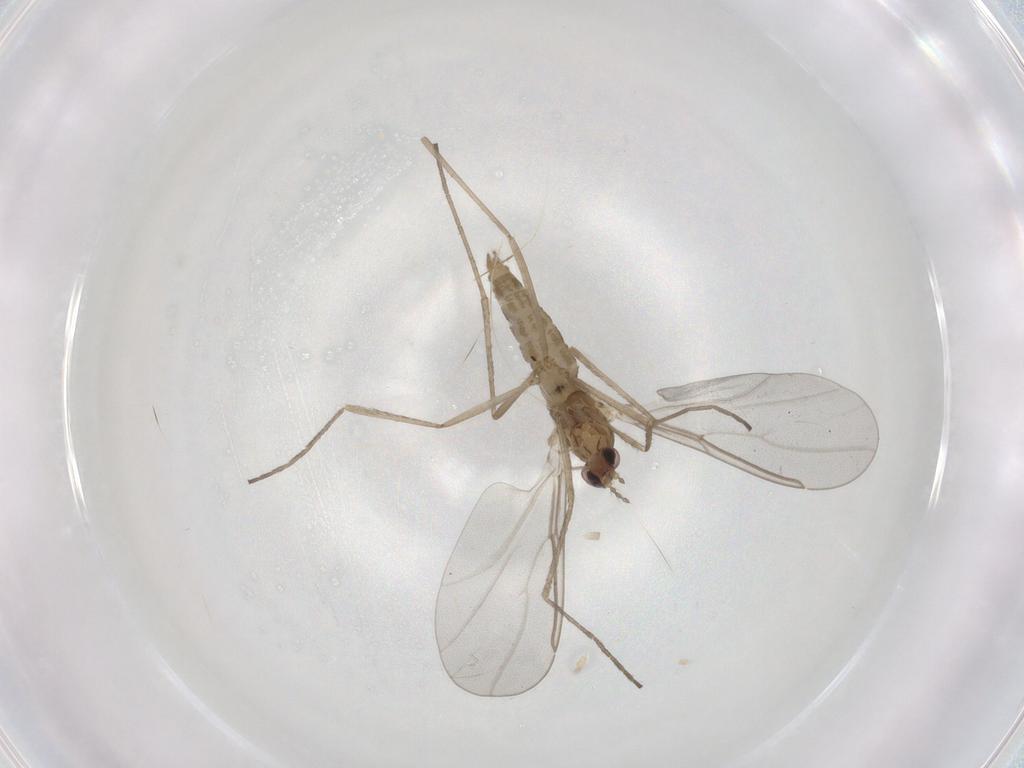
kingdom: Animalia
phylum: Arthropoda
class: Insecta
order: Diptera
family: Cecidomyiidae
